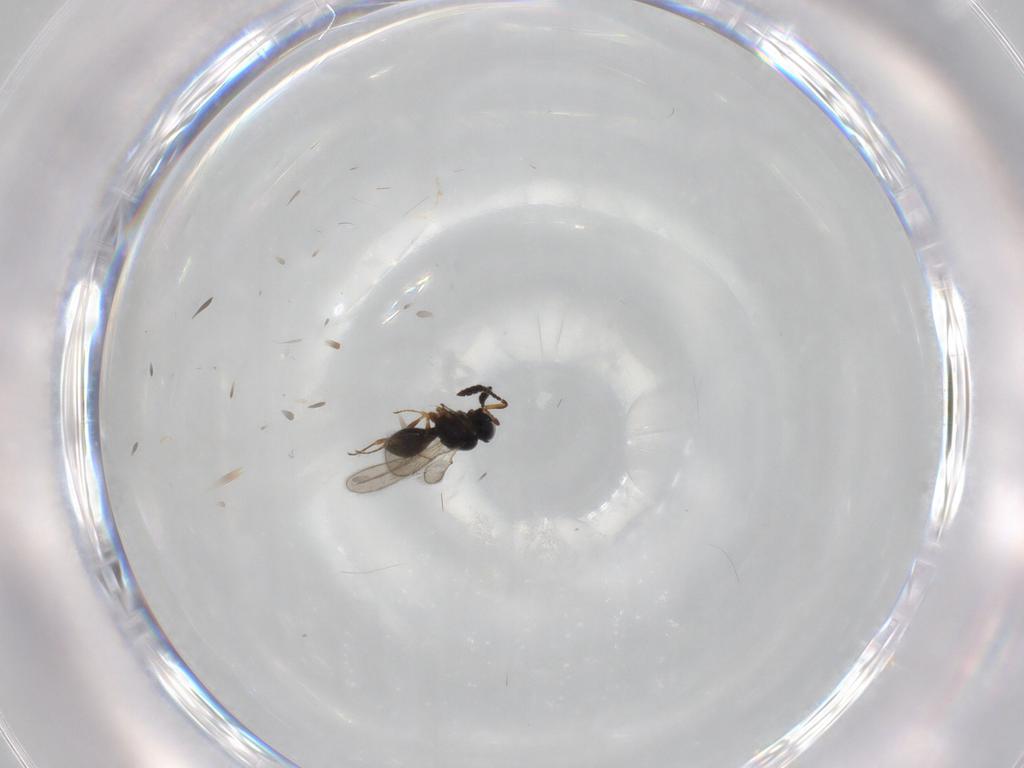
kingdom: Animalia
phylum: Arthropoda
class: Insecta
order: Hymenoptera
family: Scelionidae
